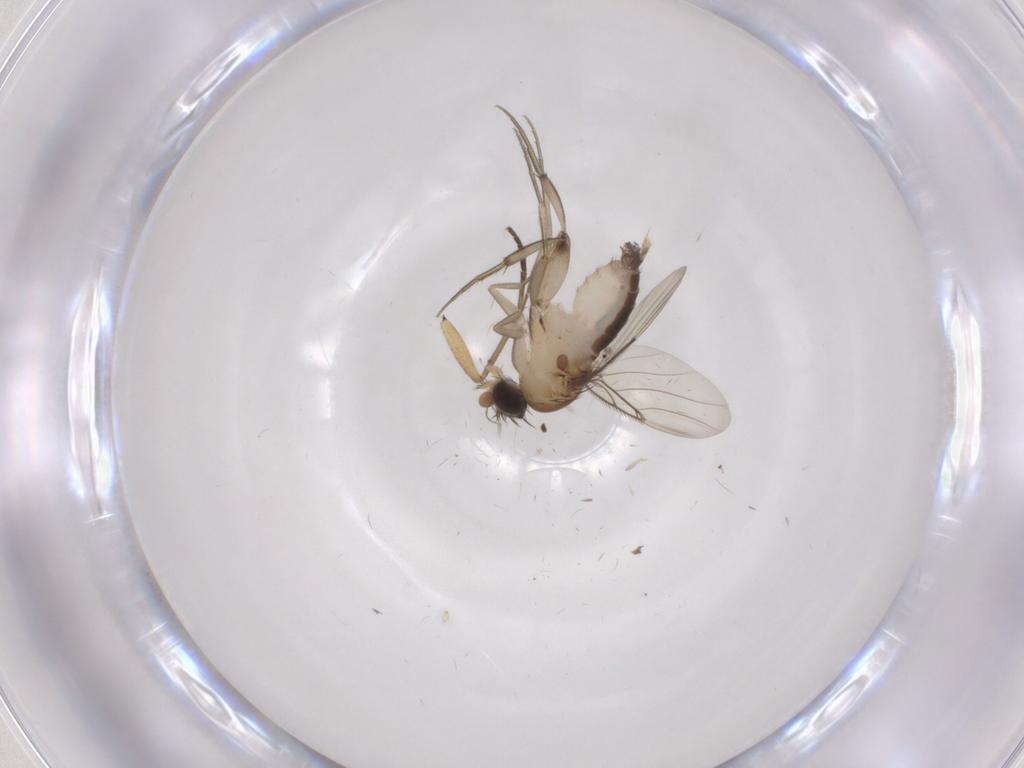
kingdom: Animalia
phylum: Arthropoda
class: Insecta
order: Diptera
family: Phoridae
